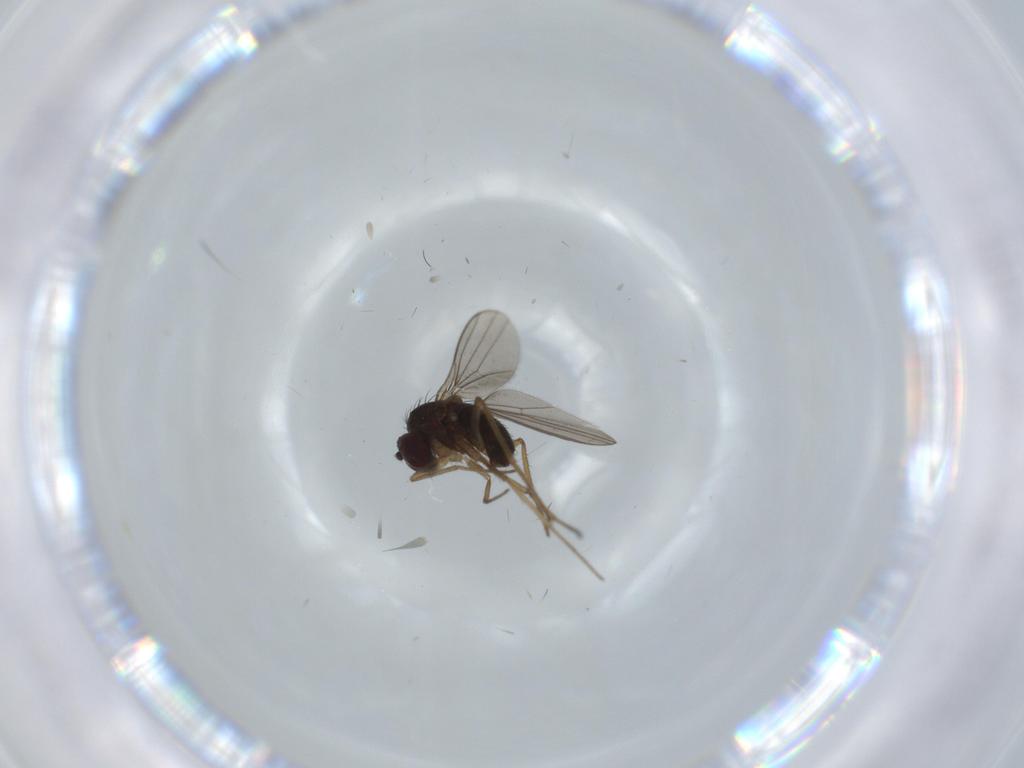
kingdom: Animalia
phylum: Arthropoda
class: Insecta
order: Diptera
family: Dolichopodidae
